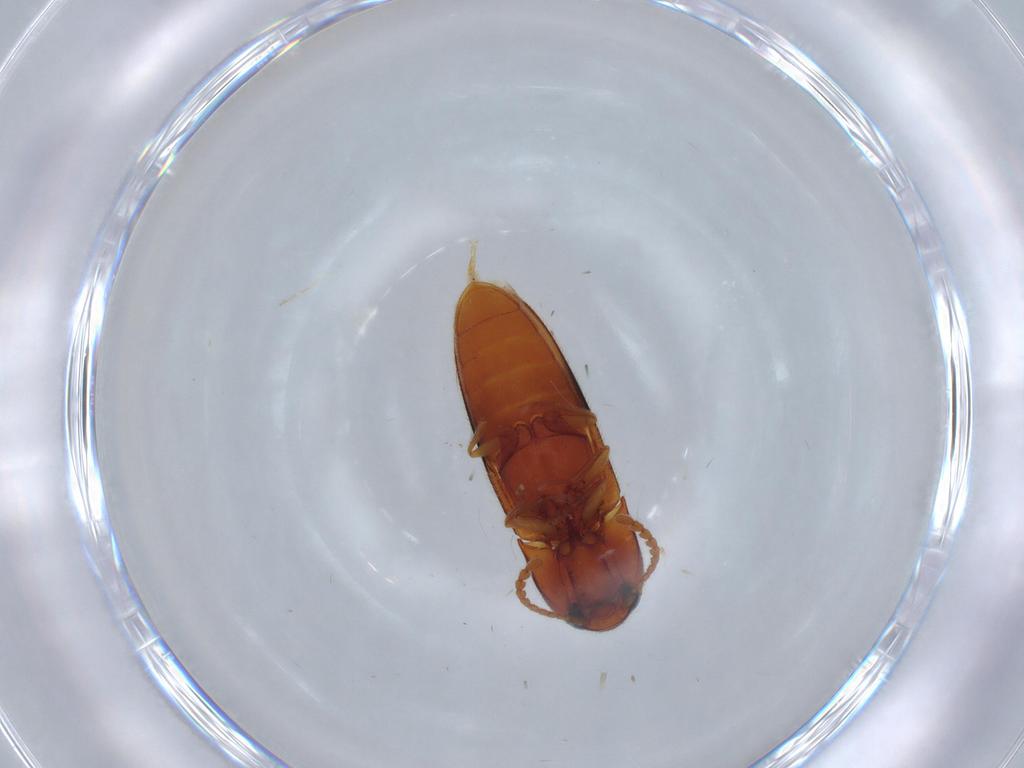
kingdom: Animalia
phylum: Arthropoda
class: Insecta
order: Coleoptera
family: Elateridae
